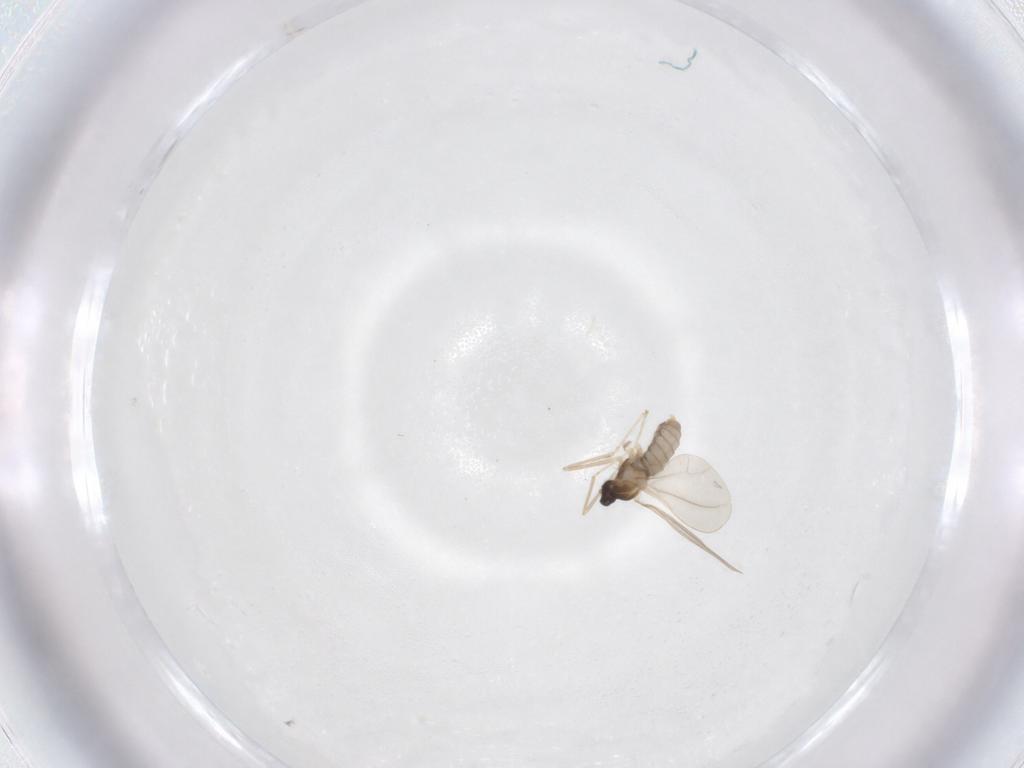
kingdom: Animalia
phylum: Arthropoda
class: Insecta
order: Diptera
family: Cecidomyiidae
